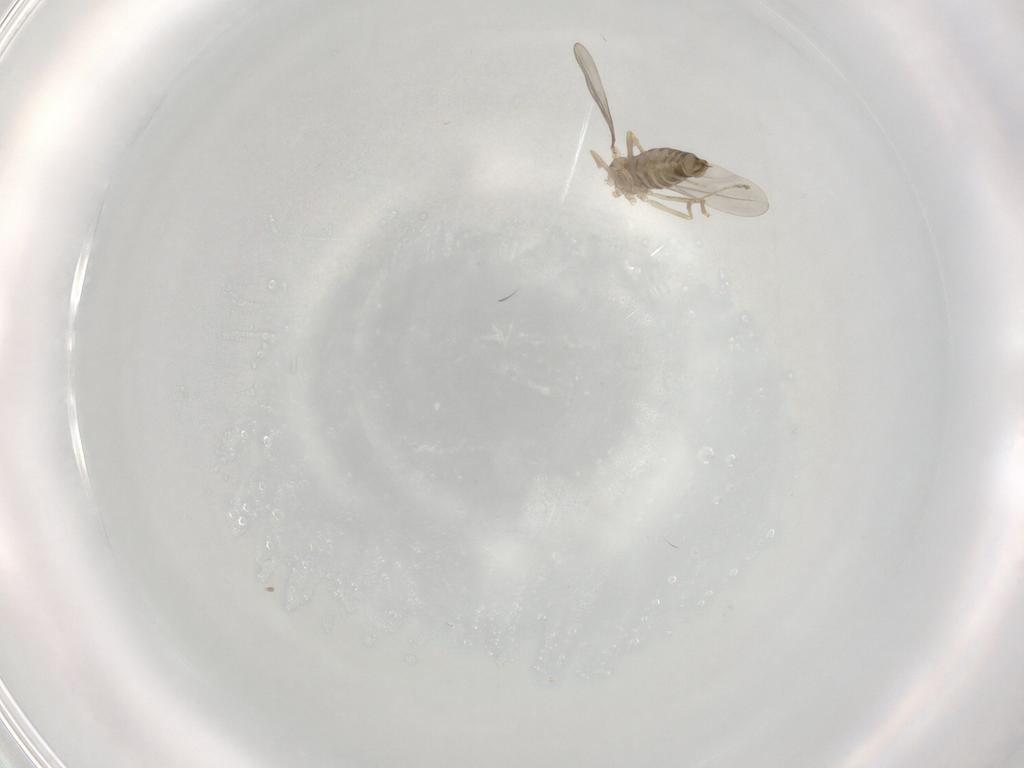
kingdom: Animalia
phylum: Arthropoda
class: Insecta
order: Diptera
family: Cecidomyiidae
